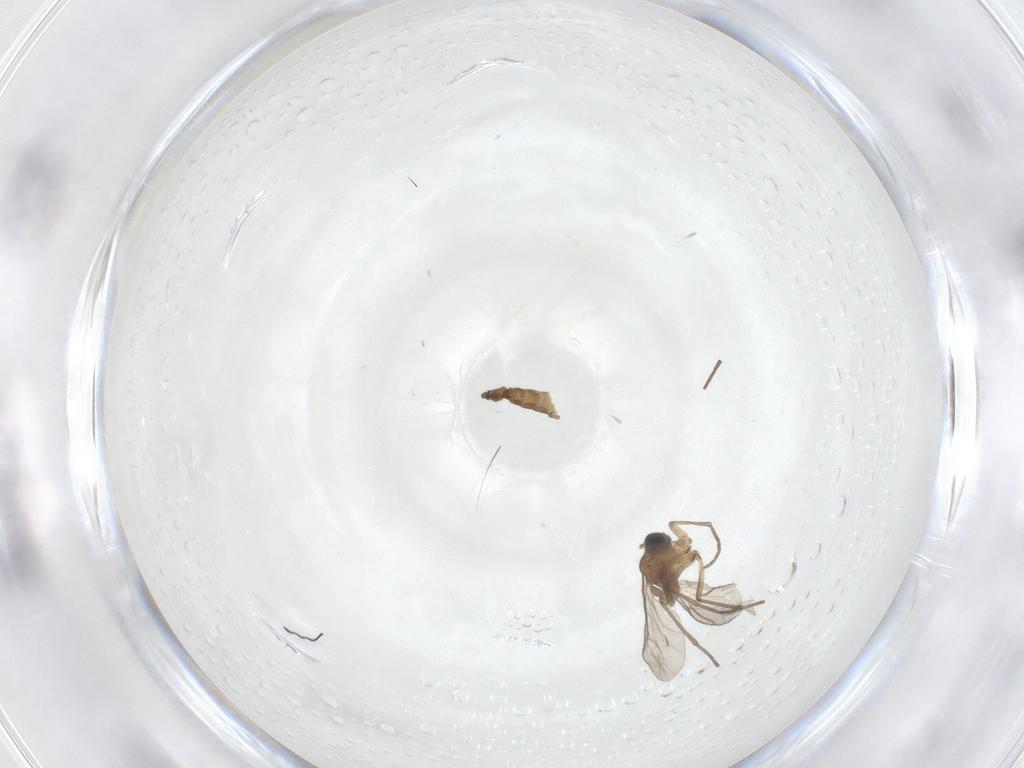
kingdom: Animalia
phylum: Arthropoda
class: Insecta
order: Diptera
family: Sciaridae
